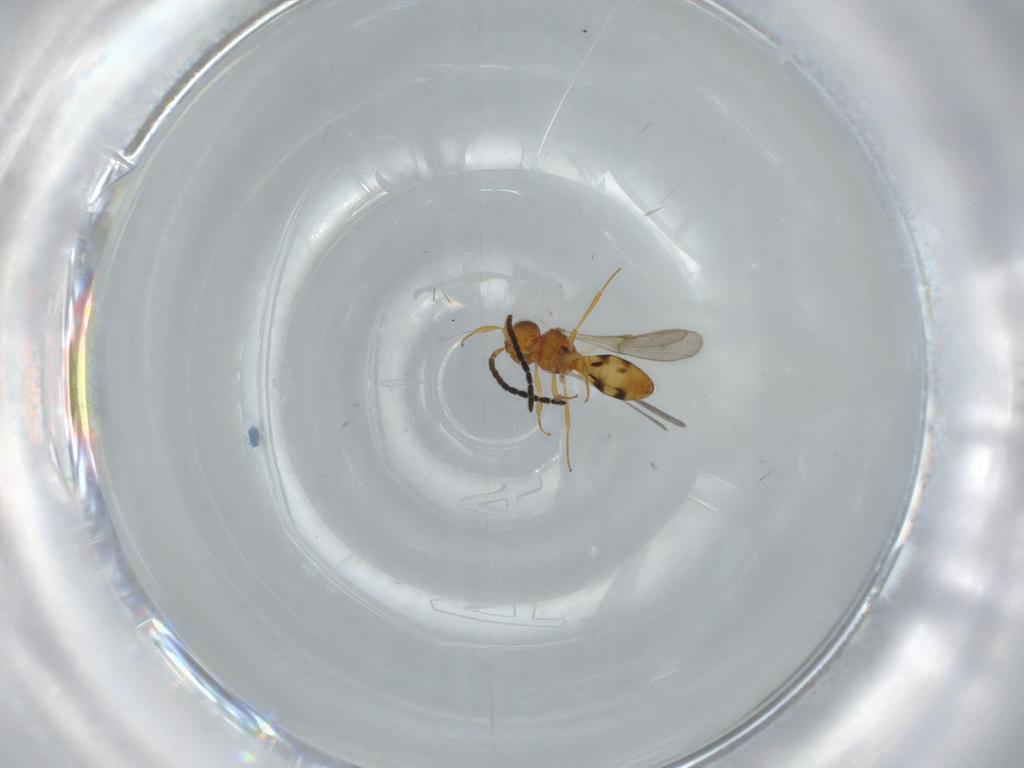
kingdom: Animalia
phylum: Arthropoda
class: Insecta
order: Hymenoptera
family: Scelionidae
